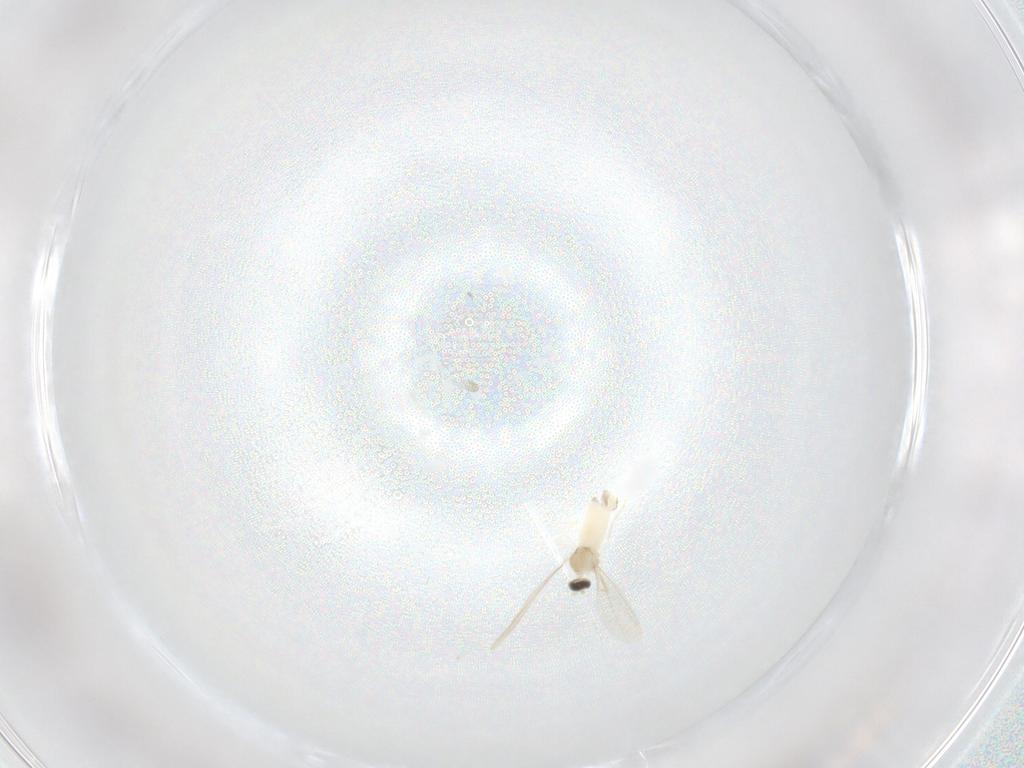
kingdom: Animalia
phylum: Arthropoda
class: Insecta
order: Diptera
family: Cecidomyiidae
